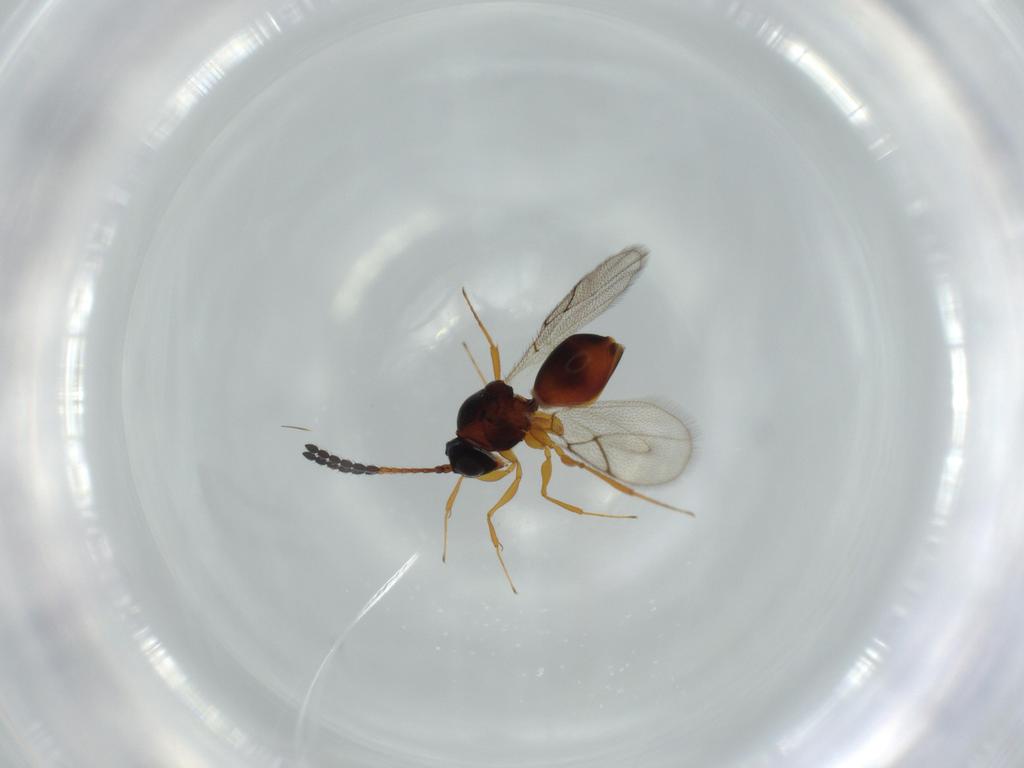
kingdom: Animalia
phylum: Arthropoda
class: Insecta
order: Hymenoptera
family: Figitidae
